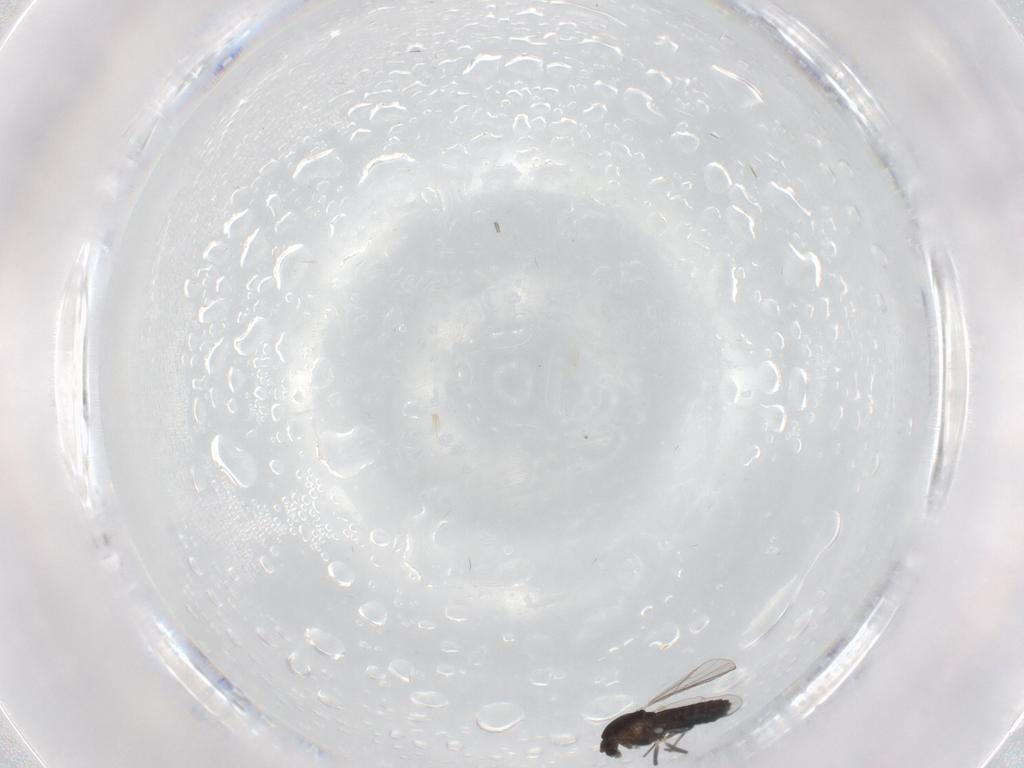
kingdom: Animalia
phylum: Arthropoda
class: Insecta
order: Diptera
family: Chironomidae
